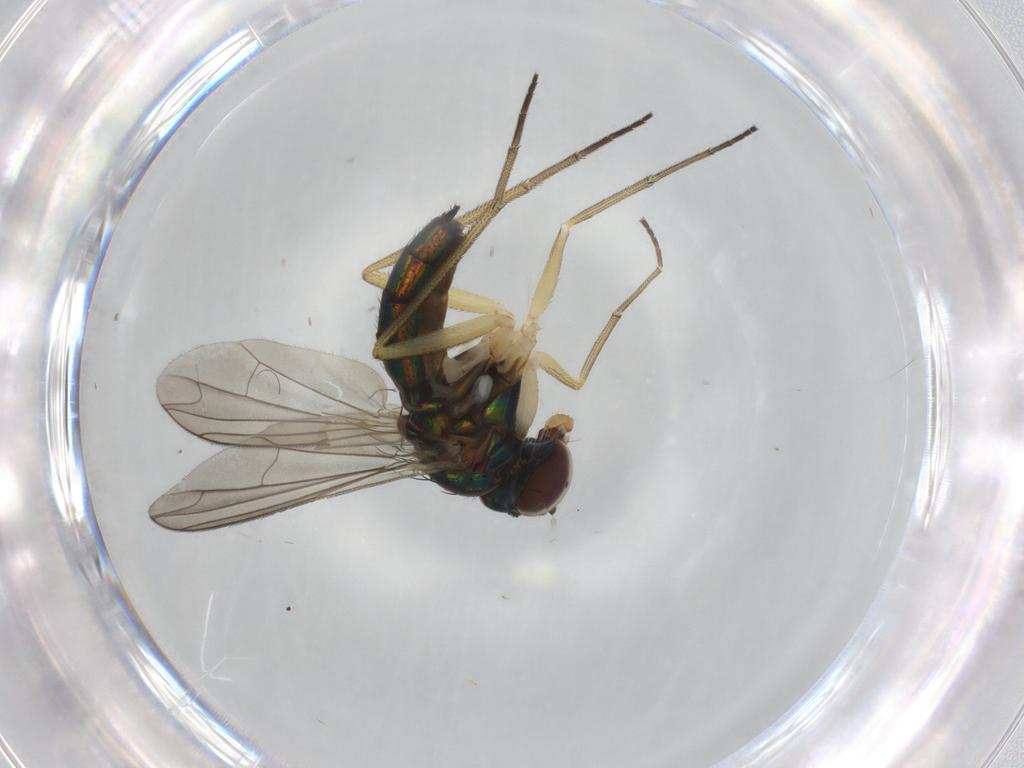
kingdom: Animalia
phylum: Arthropoda
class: Insecta
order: Diptera
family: Dolichopodidae
